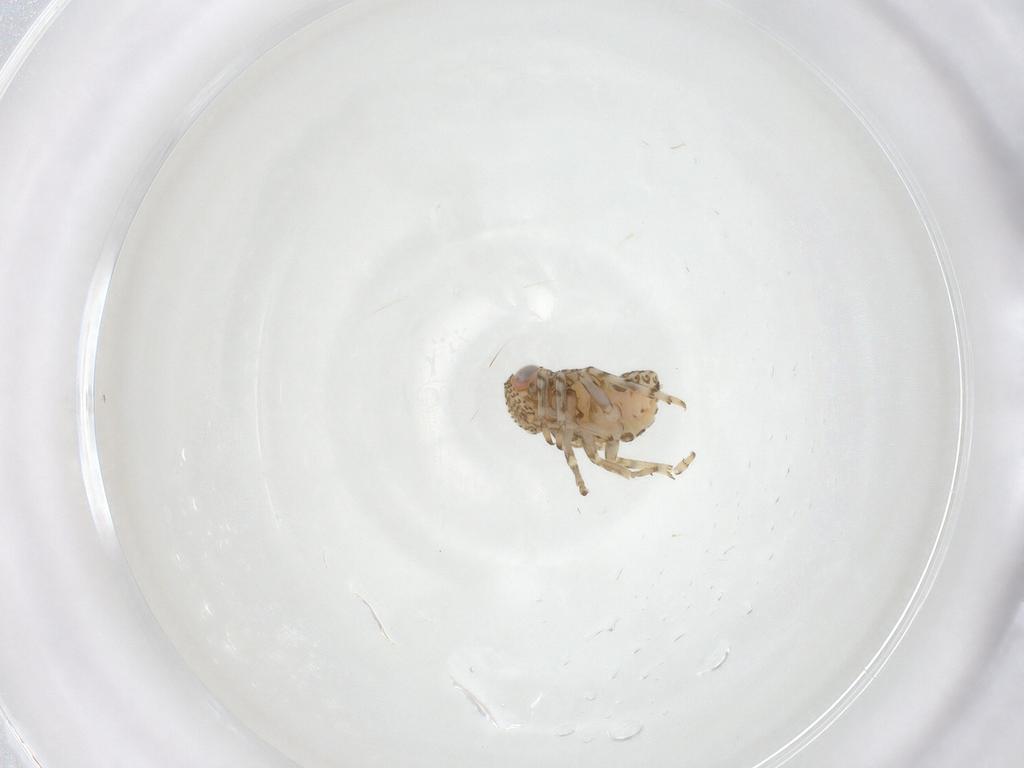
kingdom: Animalia
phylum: Arthropoda
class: Insecta
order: Hemiptera
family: Issidae
